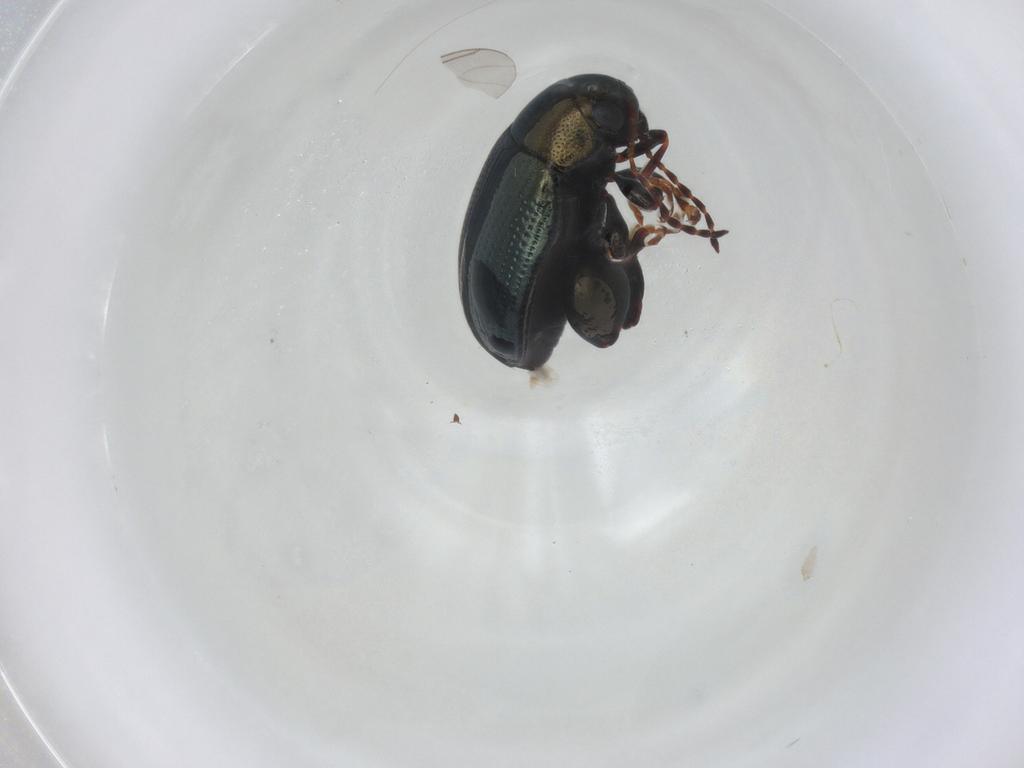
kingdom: Animalia
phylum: Arthropoda
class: Insecta
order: Coleoptera
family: Chrysomelidae
